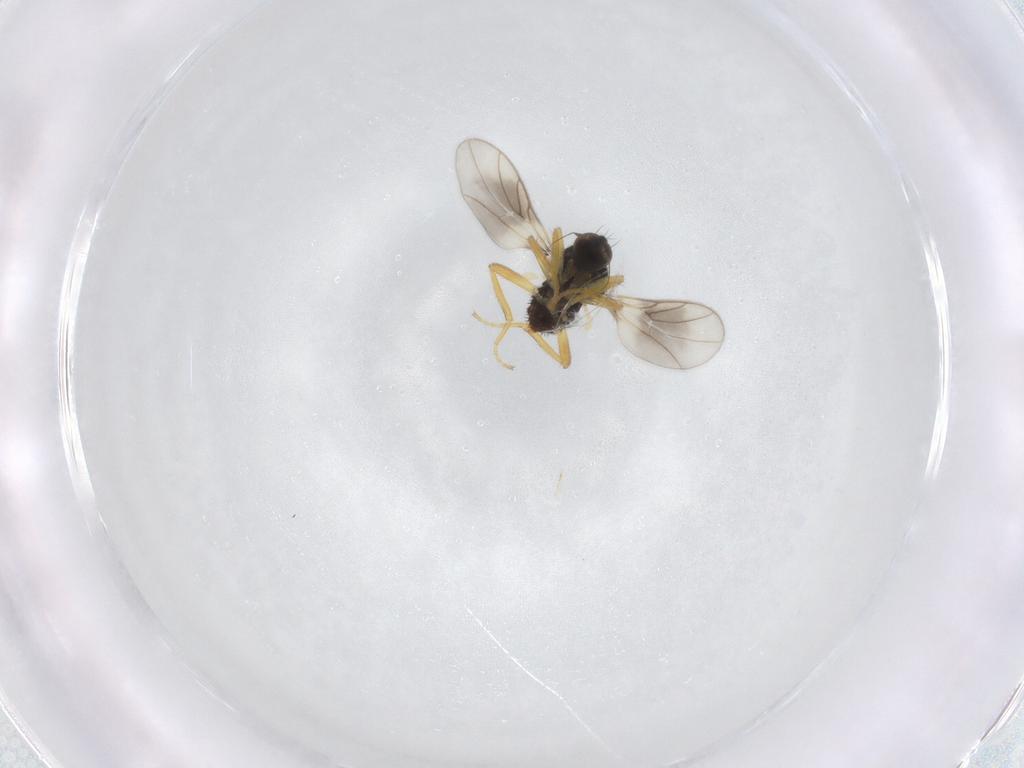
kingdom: Animalia
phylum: Arthropoda
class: Insecta
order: Diptera
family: Hybotidae
